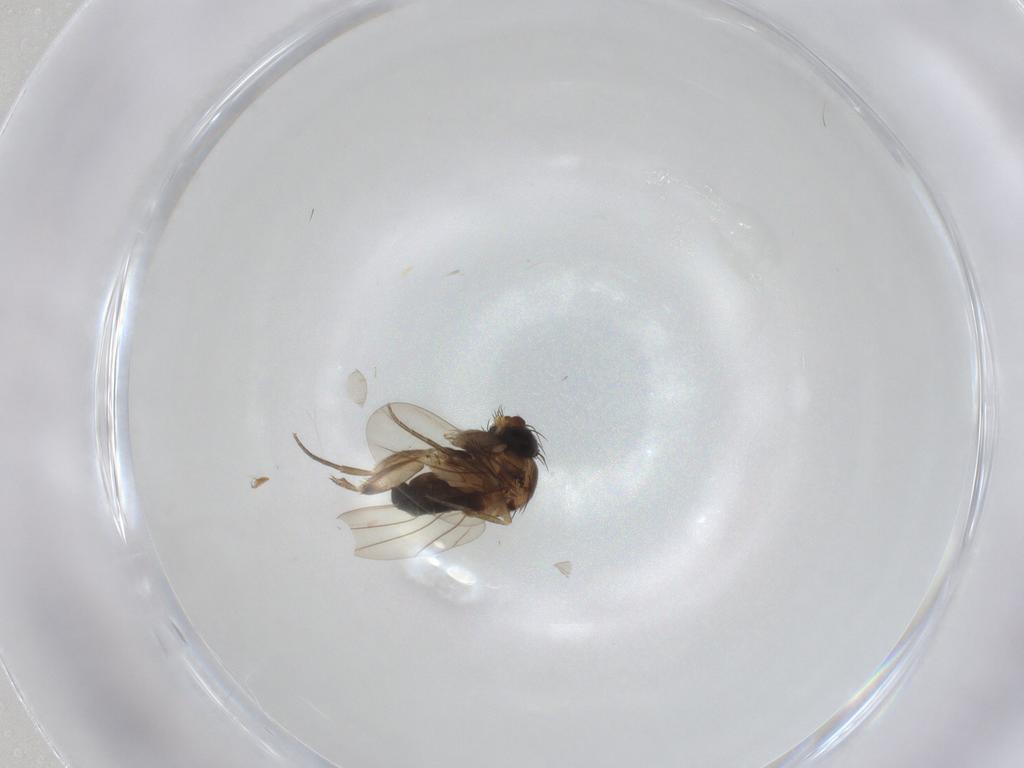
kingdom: Animalia
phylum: Arthropoda
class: Insecta
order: Diptera
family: Phoridae
